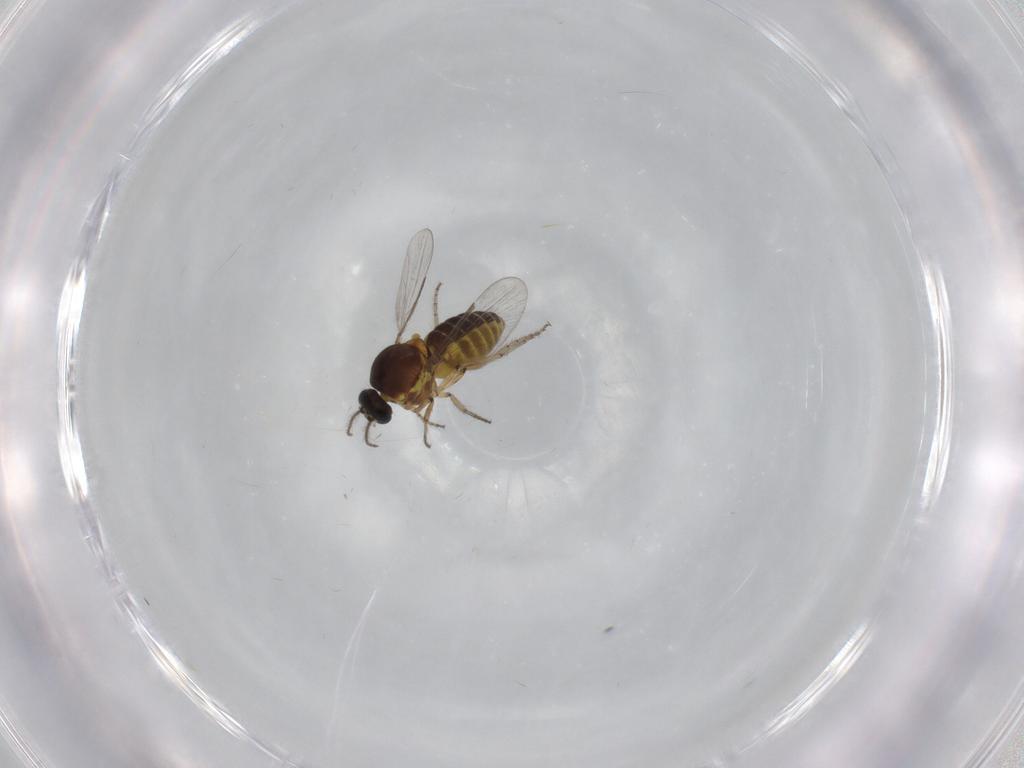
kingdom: Animalia
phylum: Arthropoda
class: Insecta
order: Diptera
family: Ceratopogonidae
